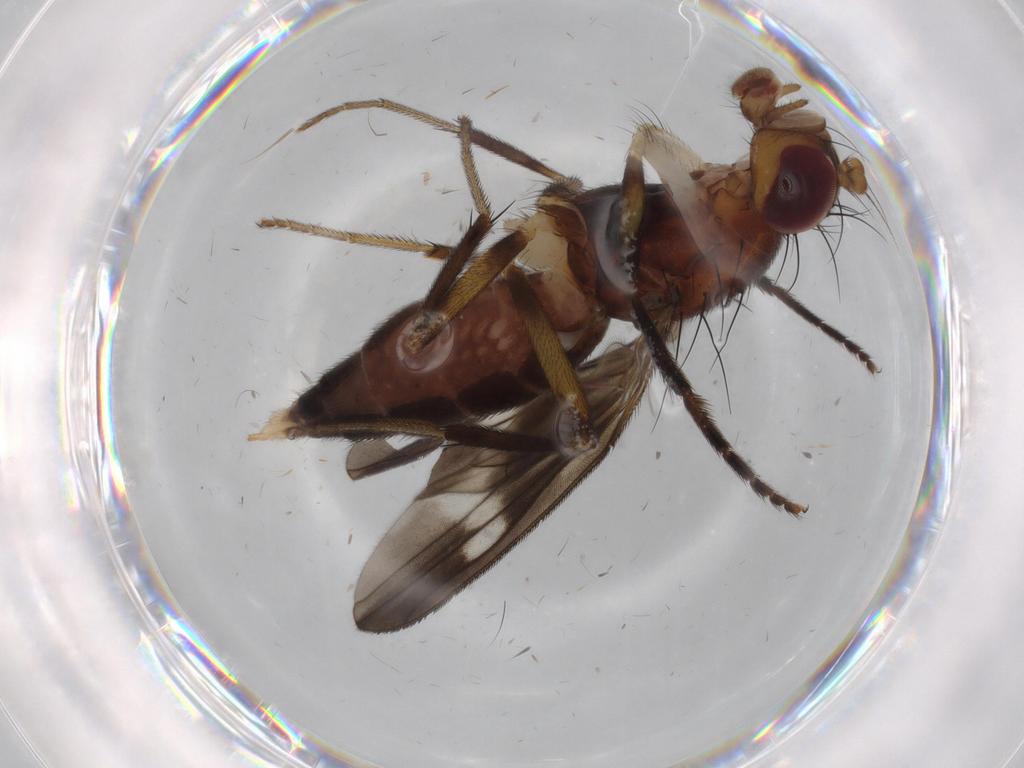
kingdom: Animalia
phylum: Arthropoda
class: Insecta
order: Diptera
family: Clusiidae
